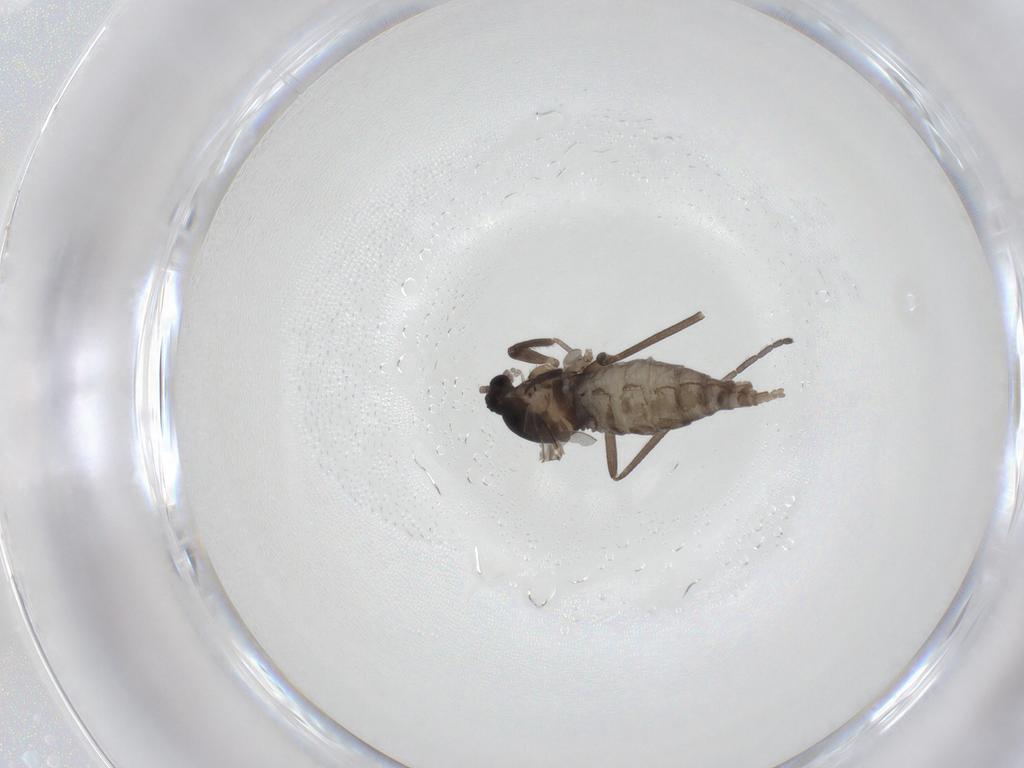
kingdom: Animalia
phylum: Arthropoda
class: Insecta
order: Diptera
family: Cecidomyiidae
